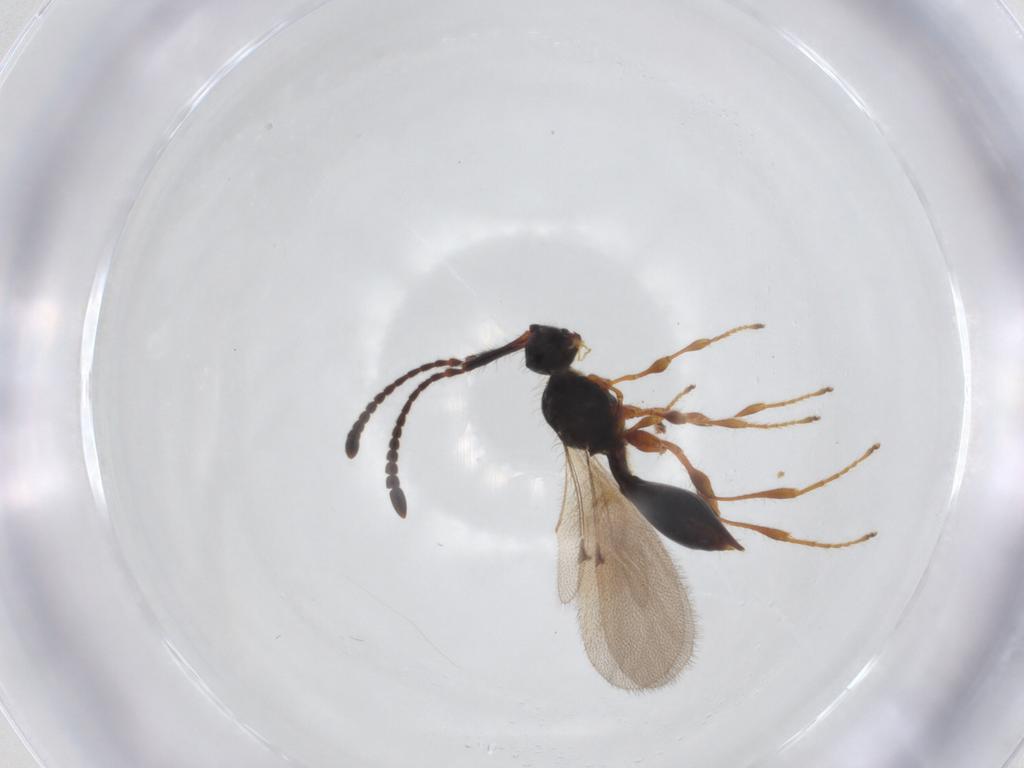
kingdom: Animalia
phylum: Arthropoda
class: Insecta
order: Hymenoptera
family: Diapriidae
